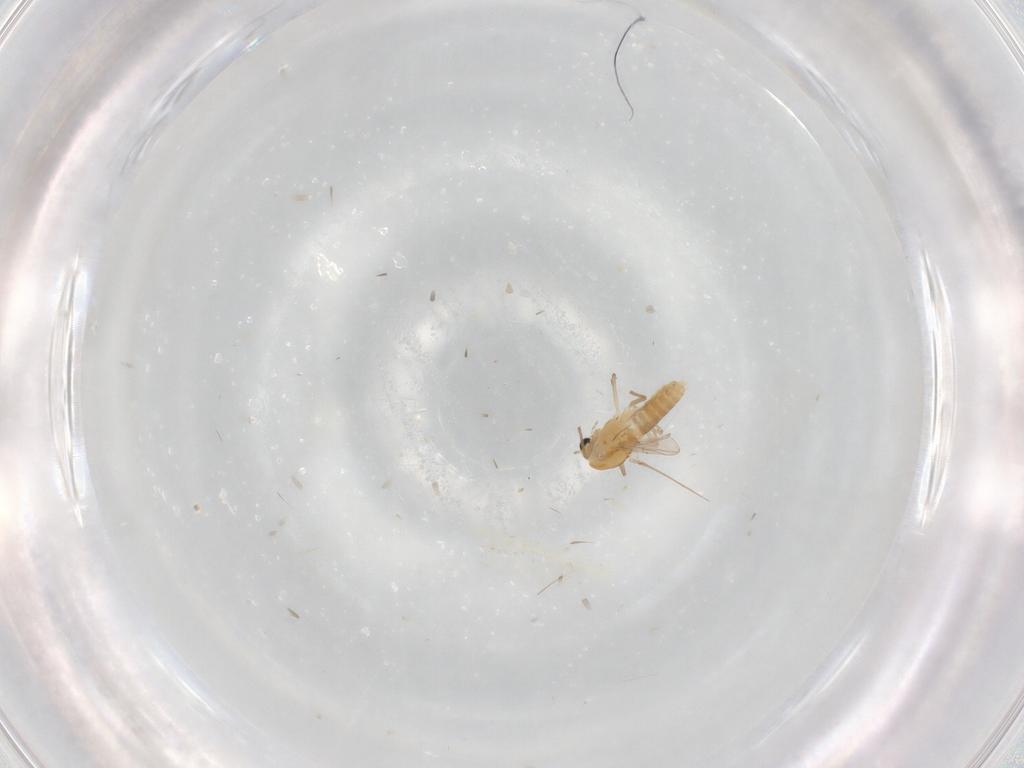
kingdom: Animalia
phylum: Arthropoda
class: Insecta
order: Diptera
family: Chironomidae
